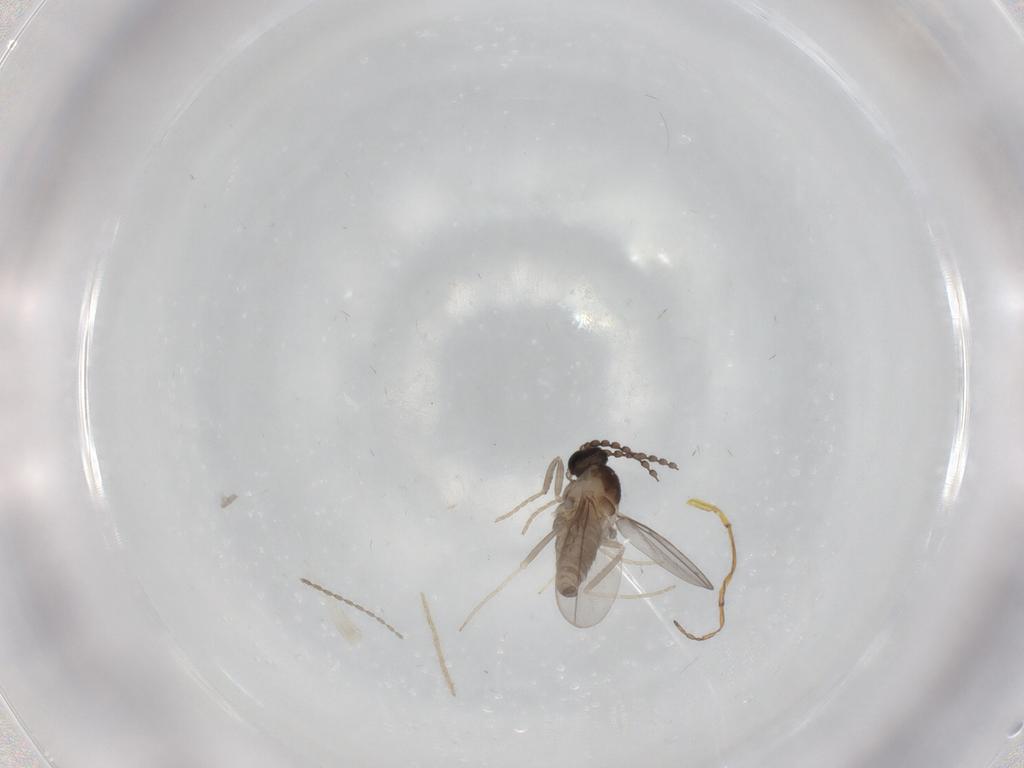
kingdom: Animalia
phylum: Arthropoda
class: Insecta
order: Diptera
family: Cecidomyiidae
